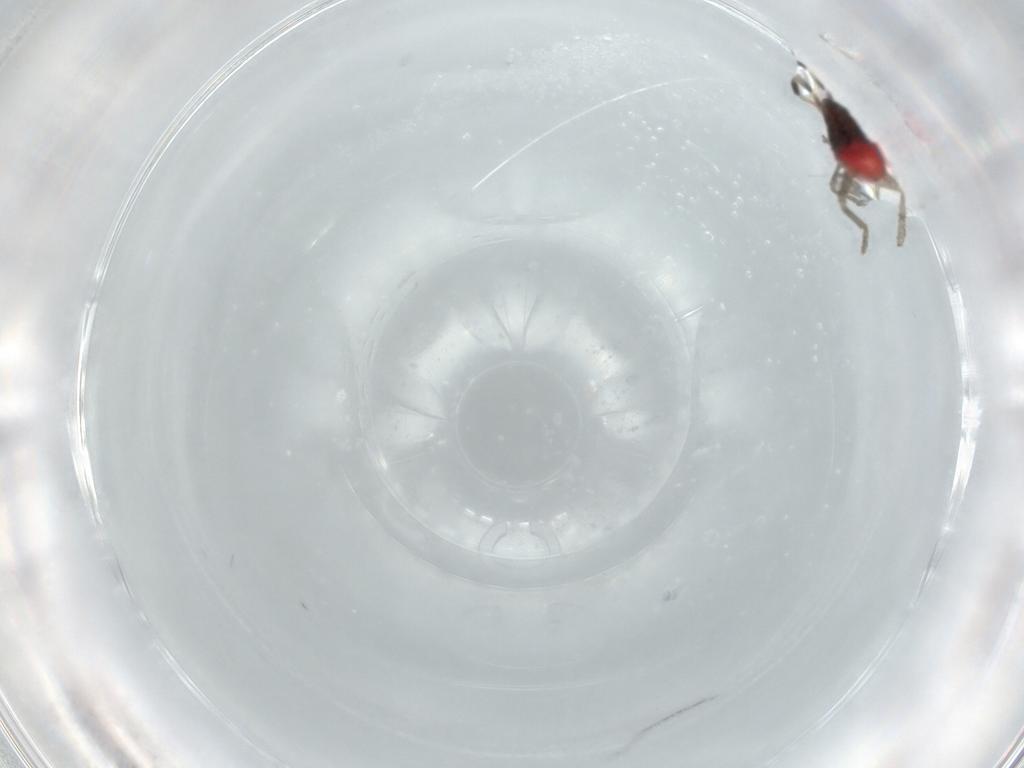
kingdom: Animalia
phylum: Arthropoda
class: Insecta
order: Hemiptera
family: Rhyparochromidae
